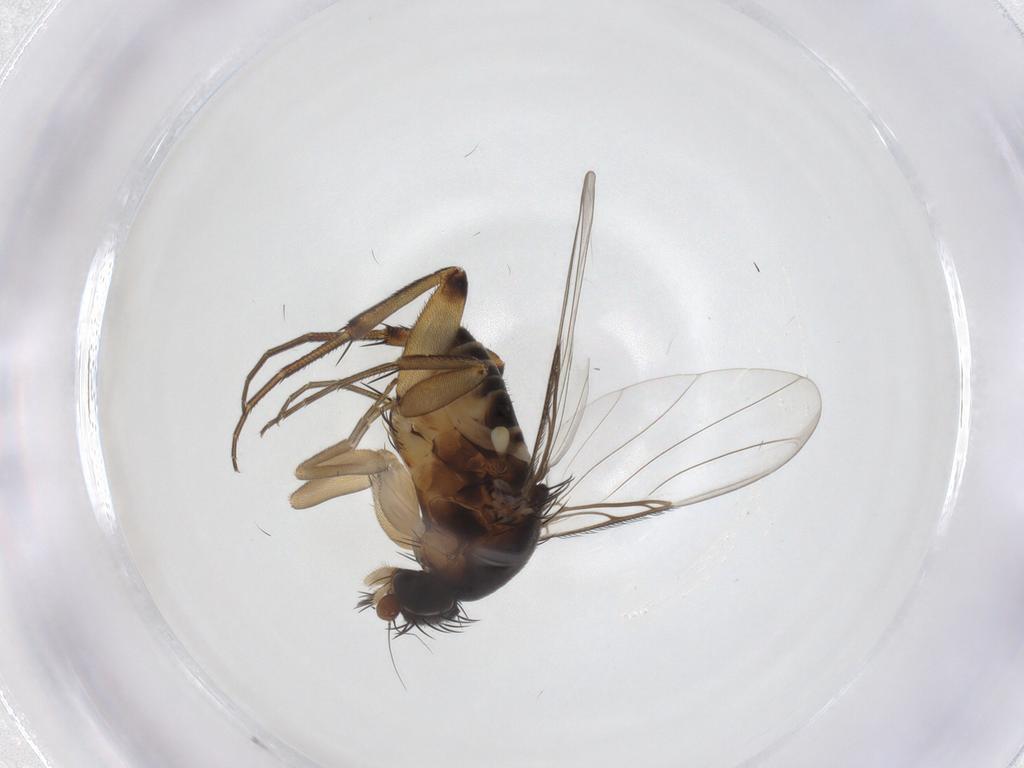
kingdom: Animalia
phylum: Arthropoda
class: Insecta
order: Diptera
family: Phoridae
